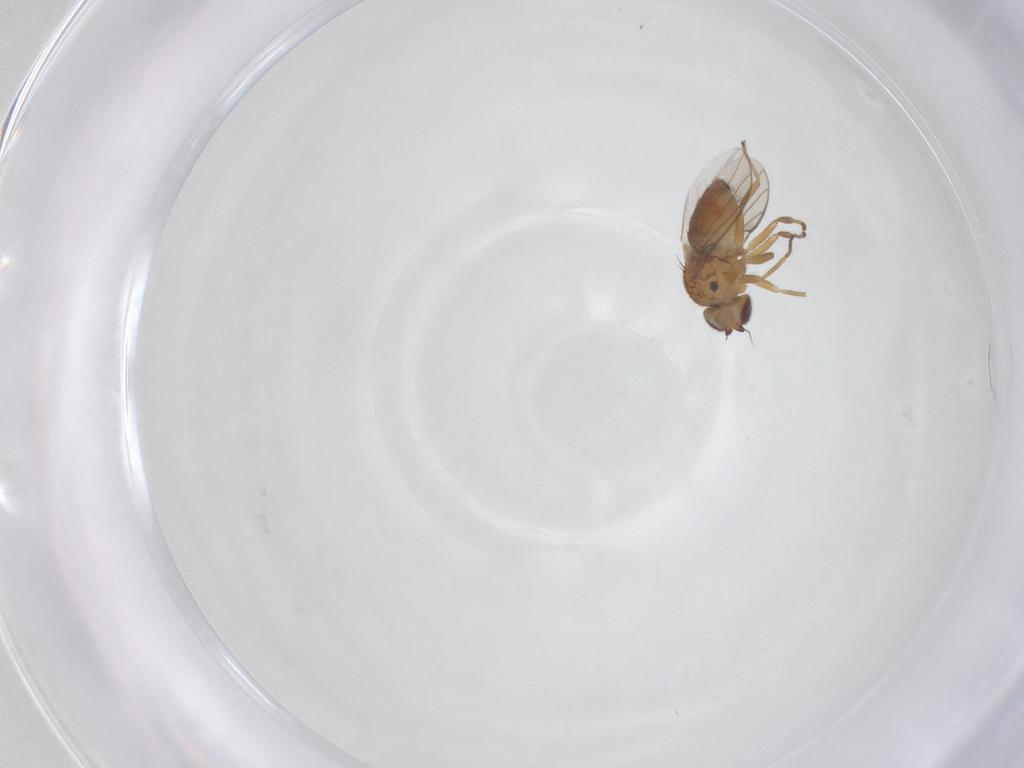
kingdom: Animalia
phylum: Arthropoda
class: Insecta
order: Diptera
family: Chloropidae
